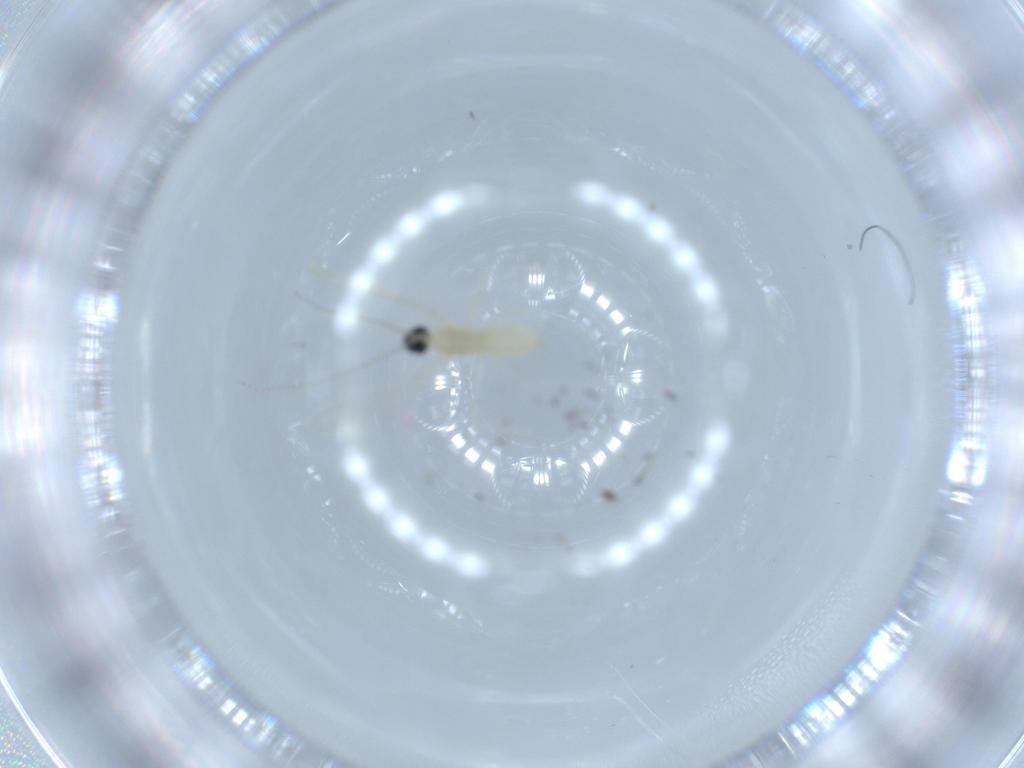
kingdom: Animalia
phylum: Arthropoda
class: Insecta
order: Diptera
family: Cecidomyiidae
